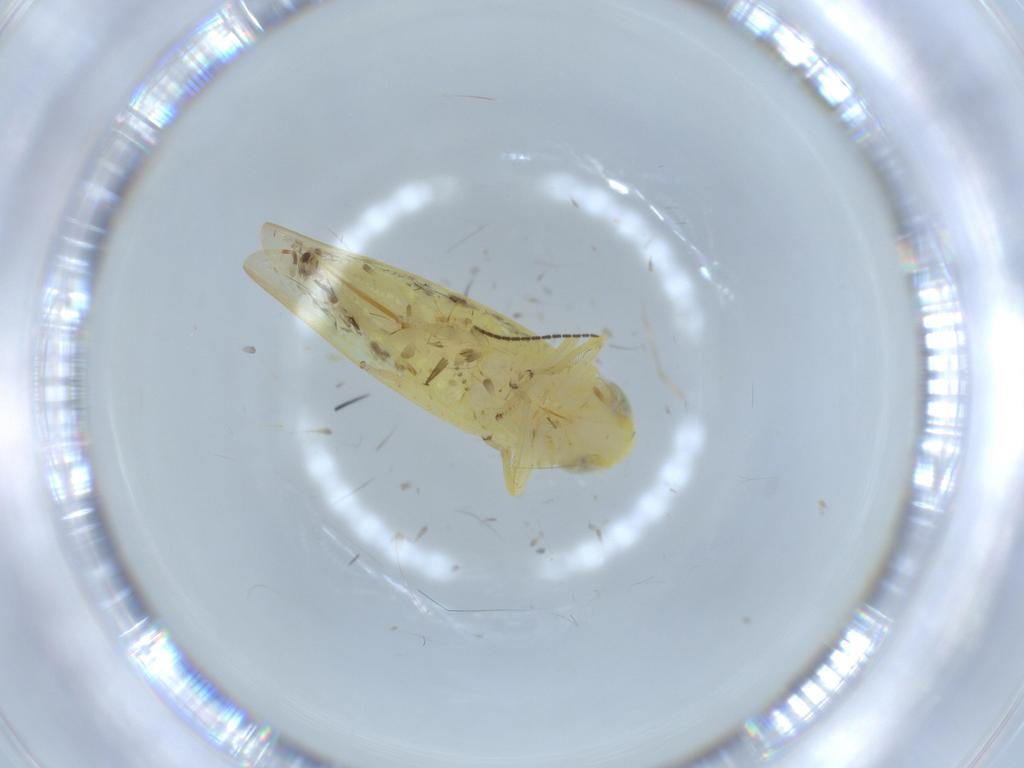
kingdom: Animalia
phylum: Arthropoda
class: Insecta
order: Hemiptera
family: Cicadellidae
